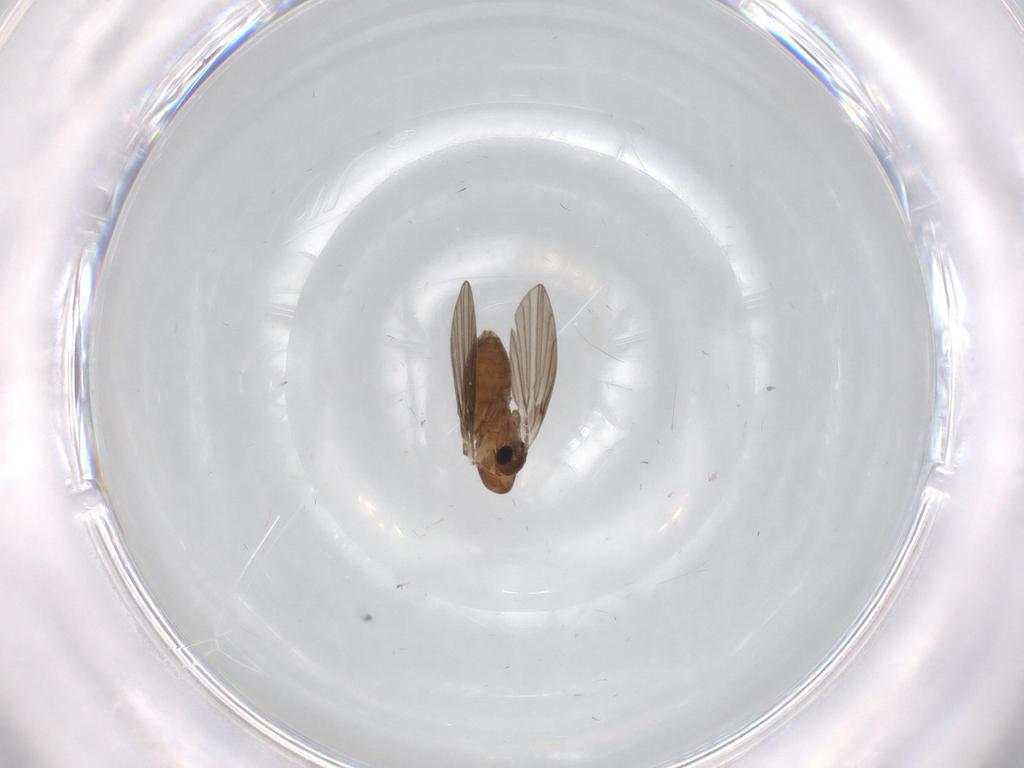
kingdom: Animalia
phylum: Arthropoda
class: Insecta
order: Diptera
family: Psychodidae
